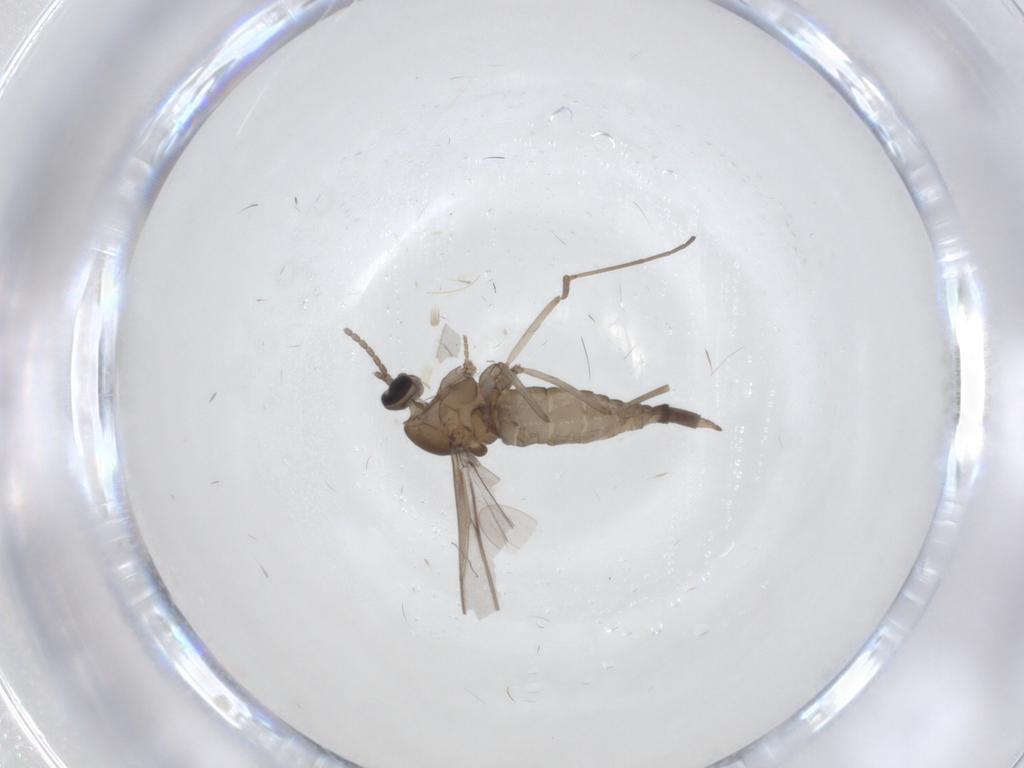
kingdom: Animalia
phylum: Arthropoda
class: Insecta
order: Diptera
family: Cecidomyiidae
